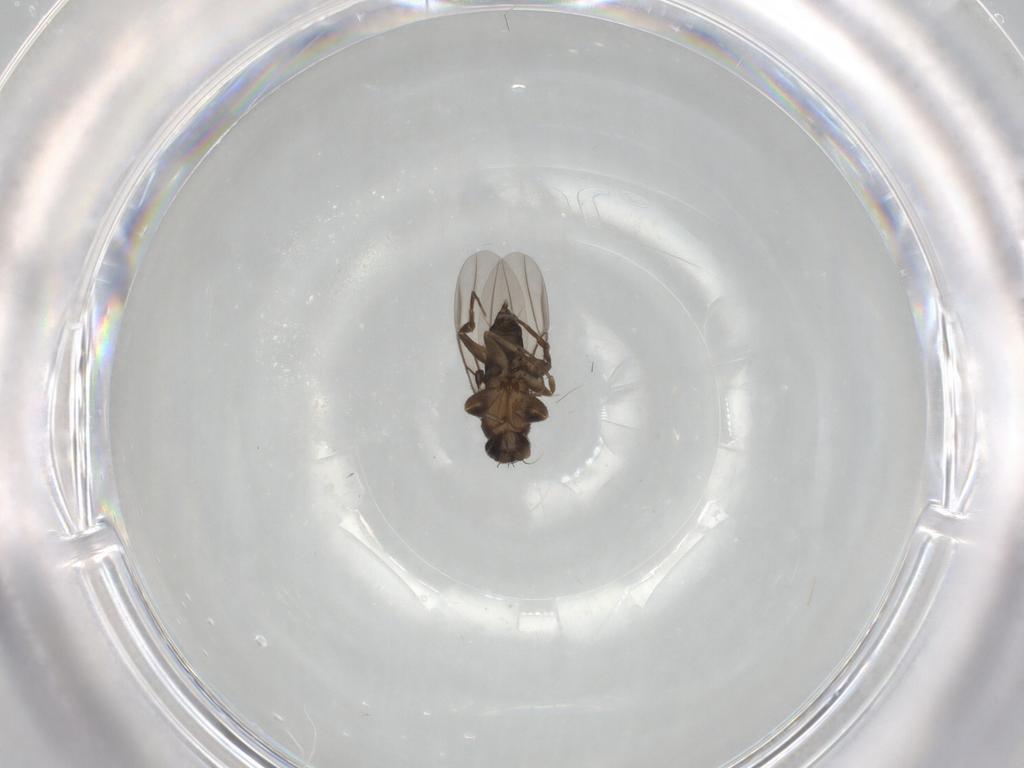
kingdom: Animalia
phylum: Arthropoda
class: Insecta
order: Diptera
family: Phoridae
